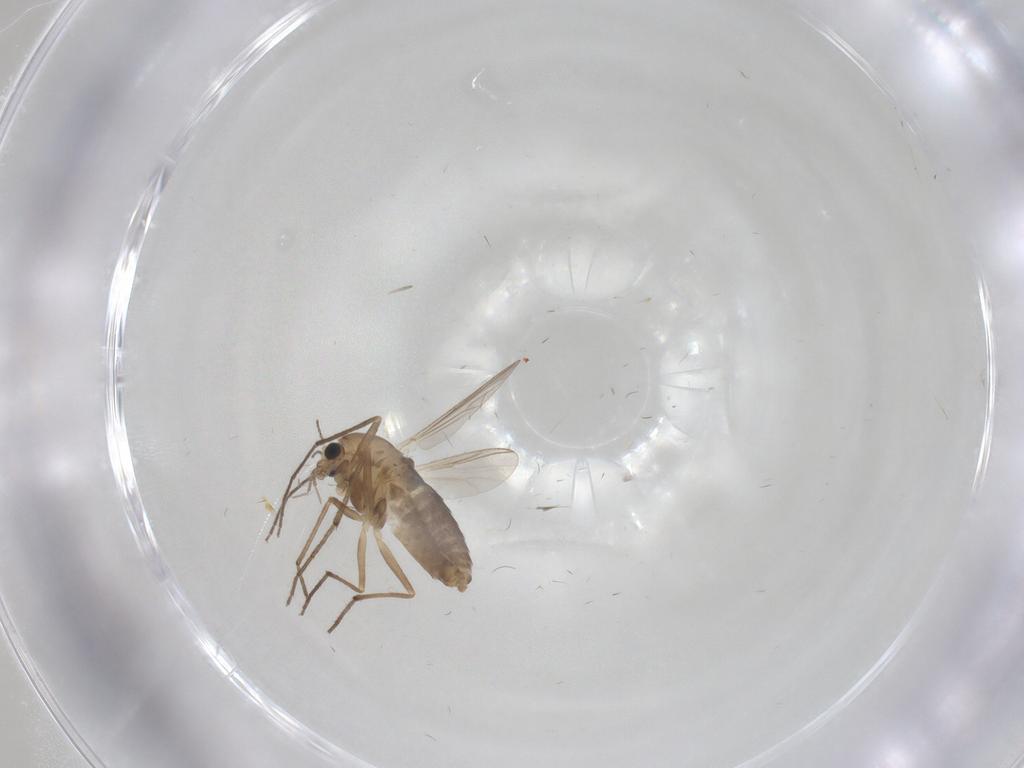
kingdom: Animalia
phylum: Arthropoda
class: Insecta
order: Diptera
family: Chironomidae
